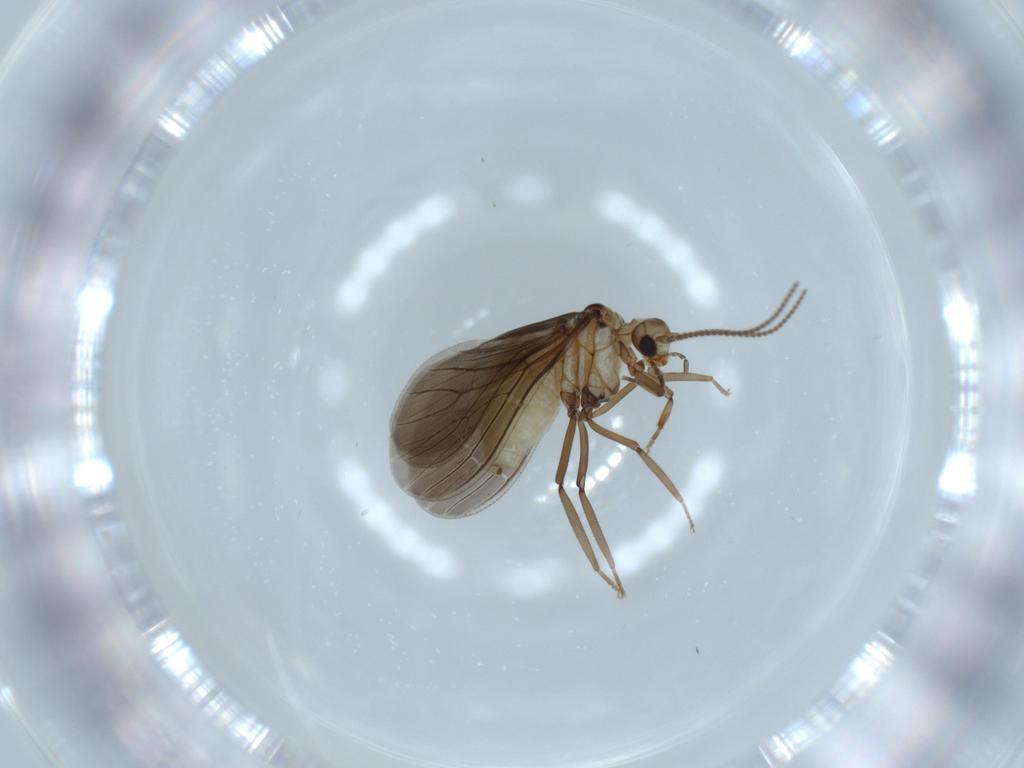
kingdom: Animalia
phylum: Arthropoda
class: Insecta
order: Neuroptera
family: Coniopterygidae
